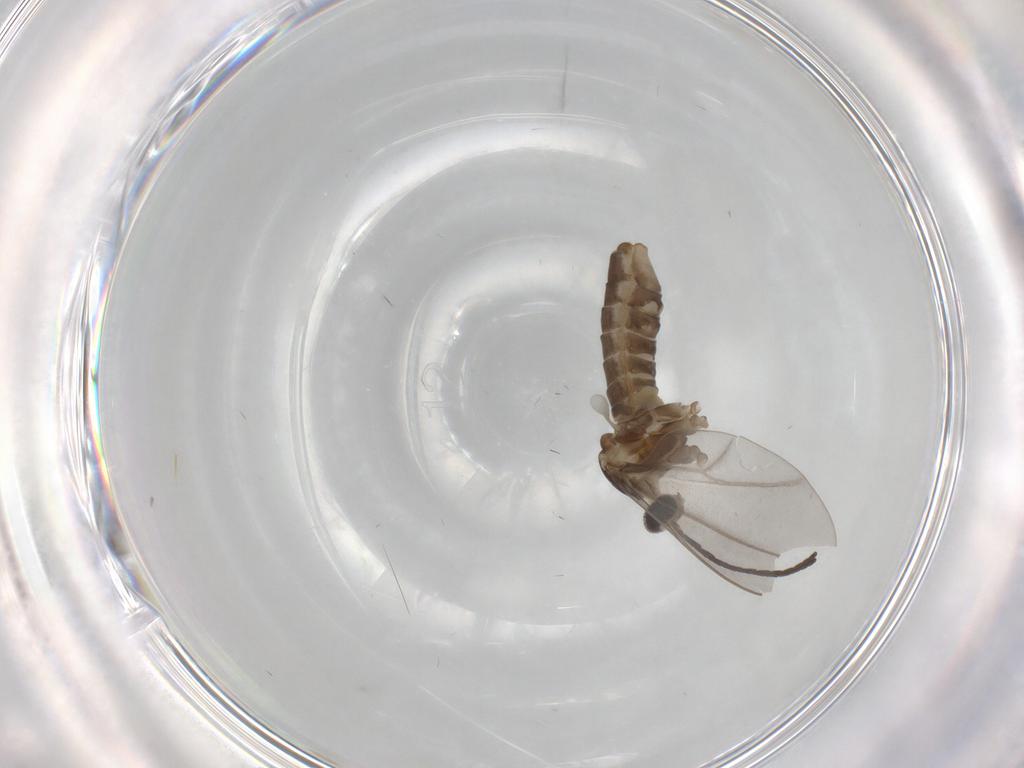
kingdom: Animalia
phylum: Arthropoda
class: Insecta
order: Diptera
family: Cecidomyiidae
